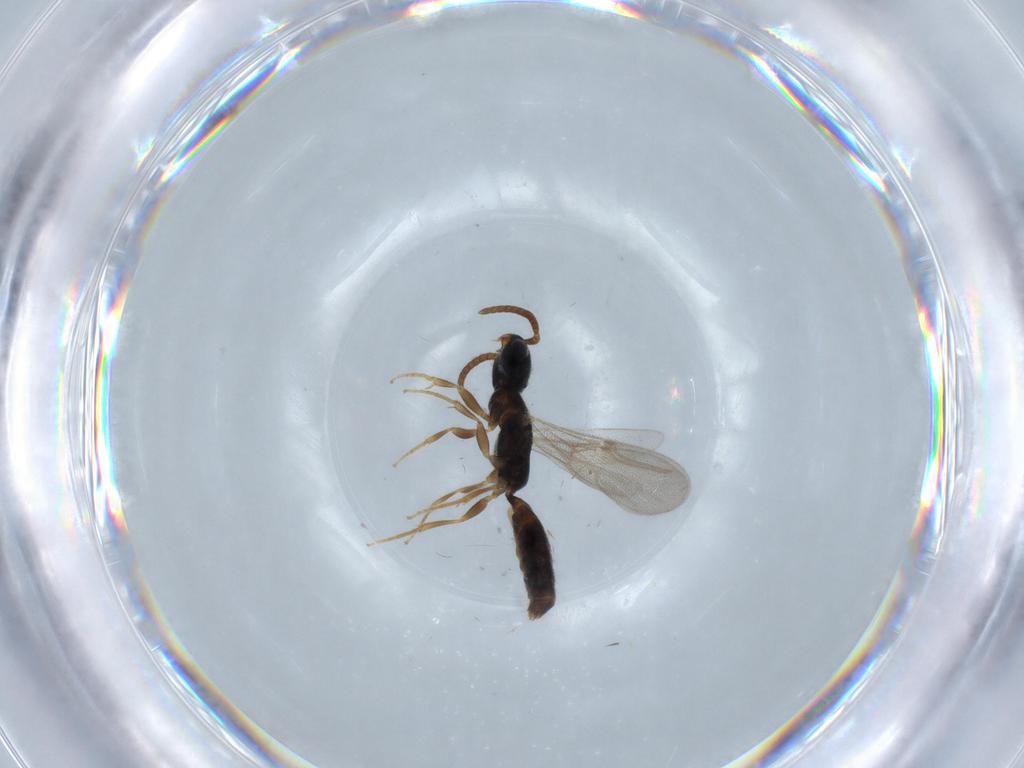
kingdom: Animalia
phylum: Arthropoda
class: Insecta
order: Hymenoptera
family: Bethylidae
